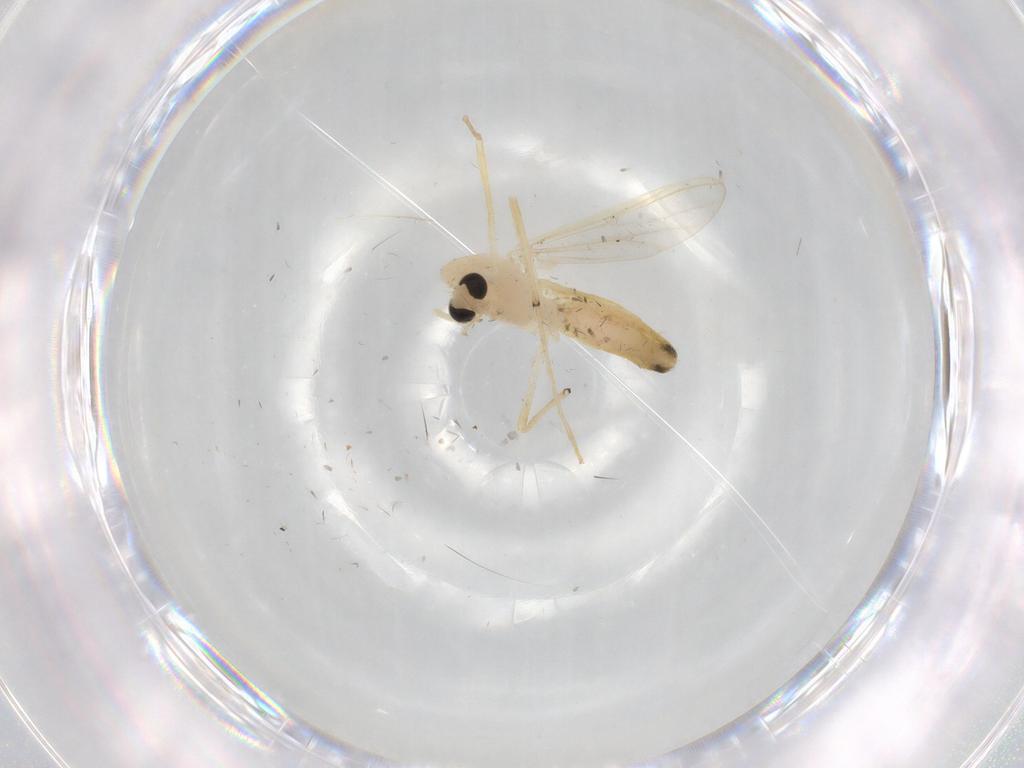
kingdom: Animalia
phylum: Arthropoda
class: Insecta
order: Diptera
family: Chironomidae
